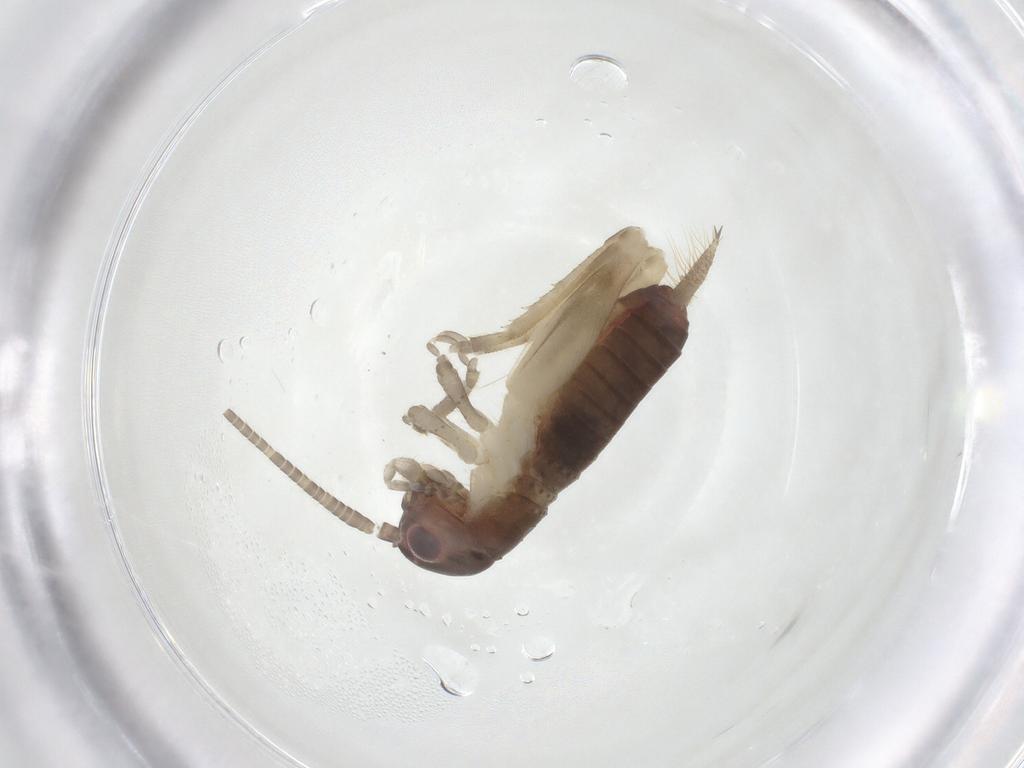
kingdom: Animalia
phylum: Arthropoda
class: Insecta
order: Orthoptera
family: Gryllidae
